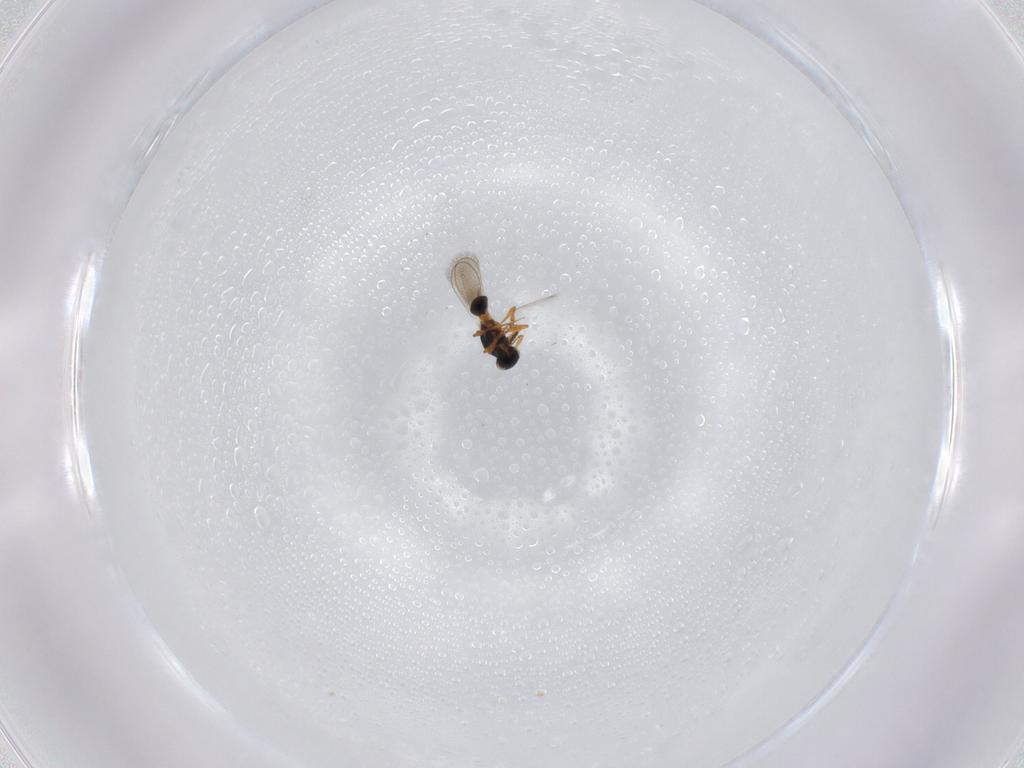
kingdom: Animalia
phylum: Arthropoda
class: Insecta
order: Hymenoptera
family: Platygastridae
